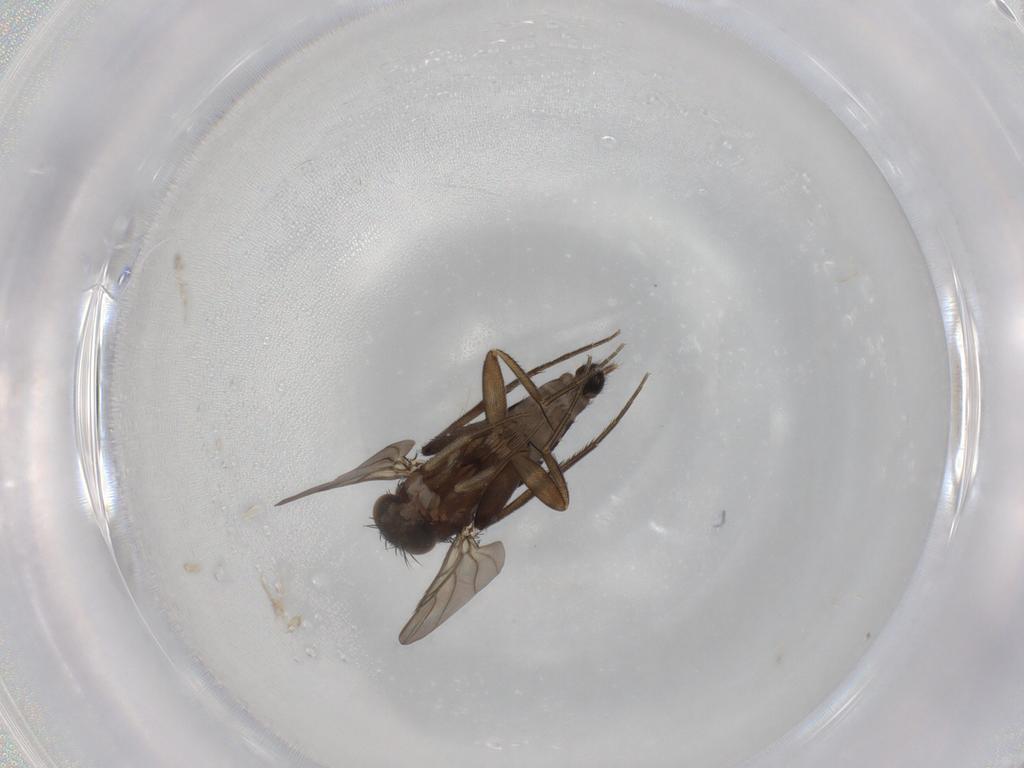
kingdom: Animalia
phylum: Arthropoda
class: Insecta
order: Diptera
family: Phoridae
